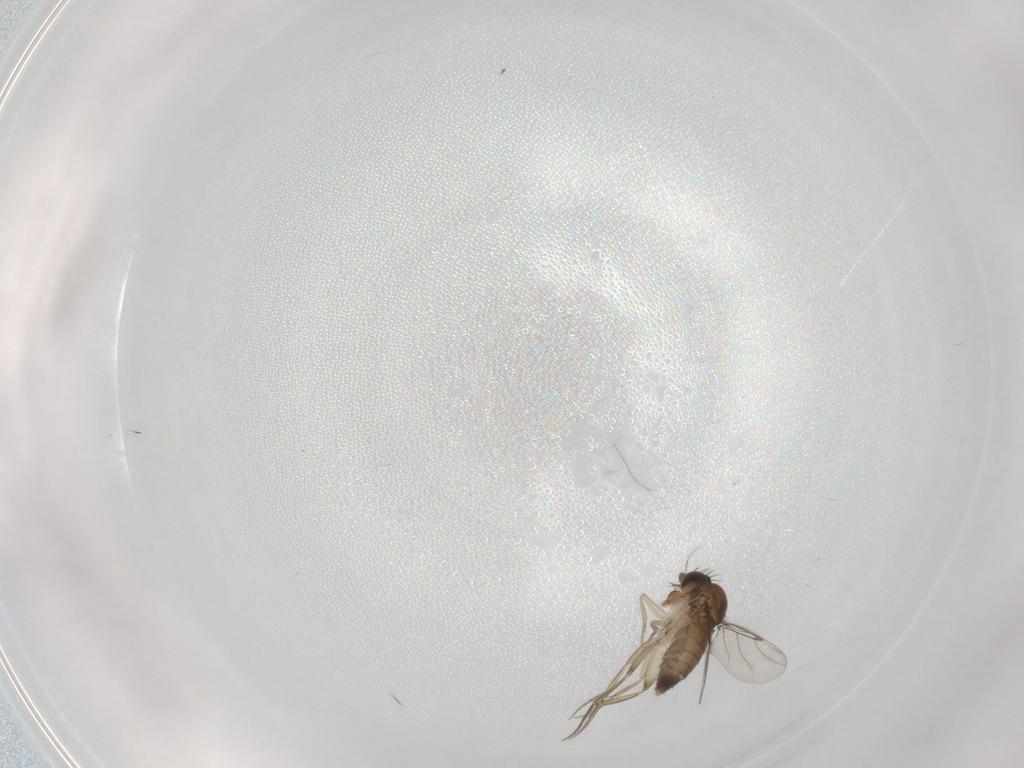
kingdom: Animalia
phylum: Arthropoda
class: Insecta
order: Diptera
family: Phoridae
